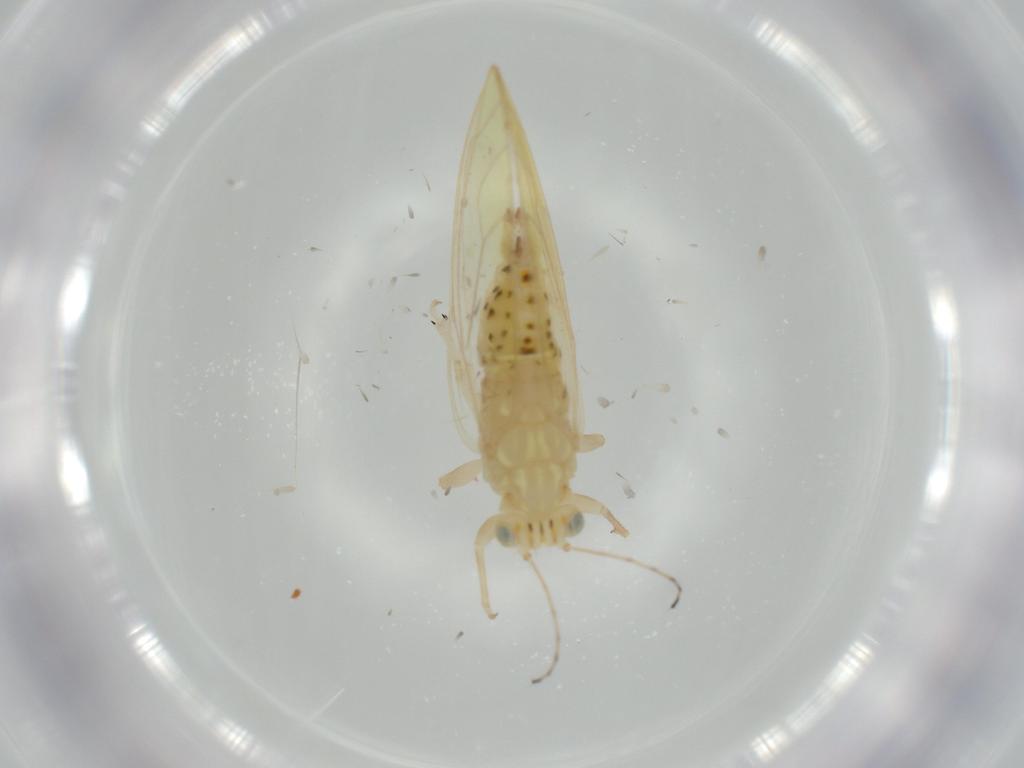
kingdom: Animalia
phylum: Arthropoda
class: Insecta
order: Hemiptera
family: Triozidae
